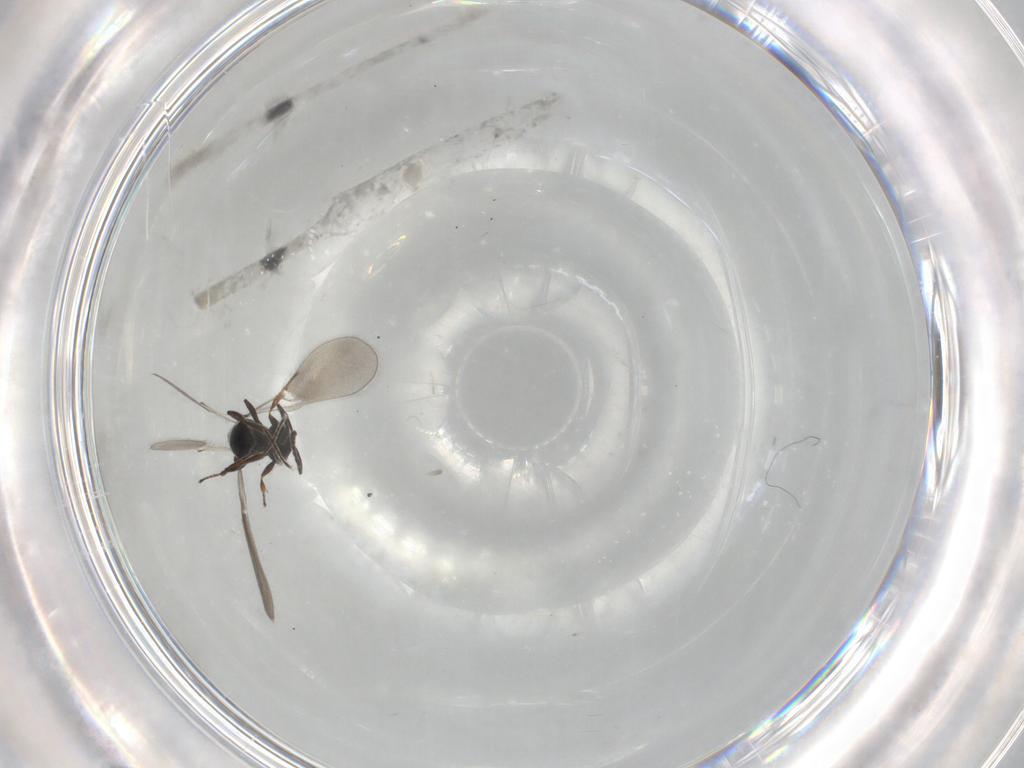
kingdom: Animalia
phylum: Arthropoda
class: Insecta
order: Hymenoptera
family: Platygastridae
